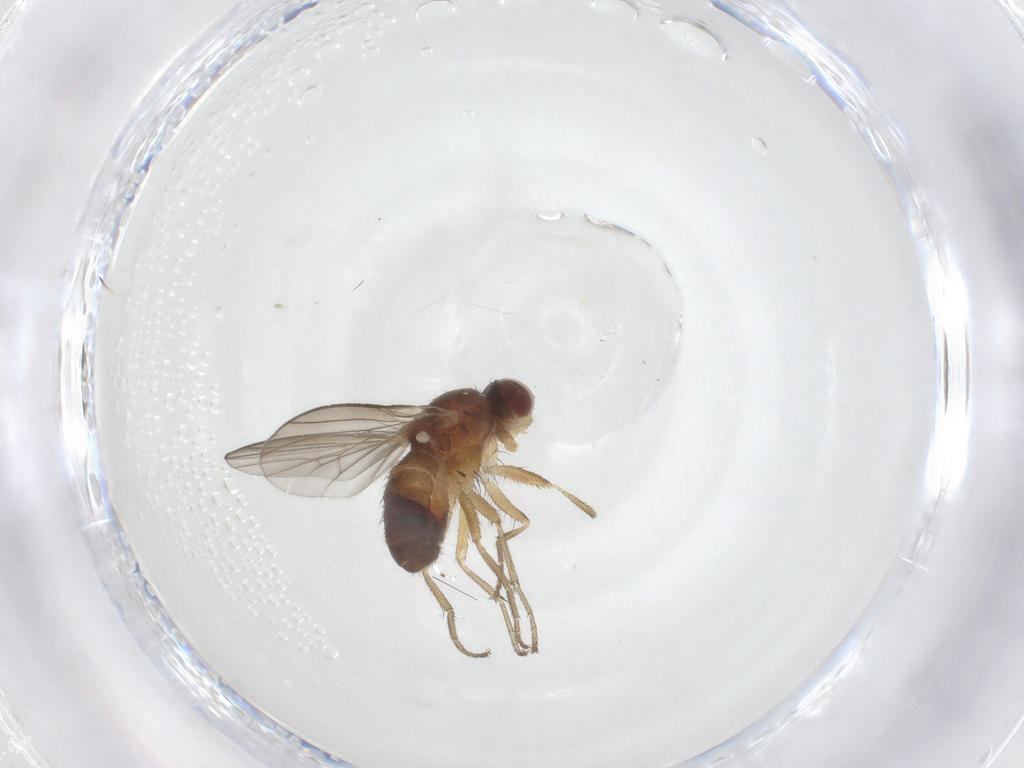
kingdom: Animalia
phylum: Arthropoda
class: Insecta
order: Diptera
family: Heleomyzidae
